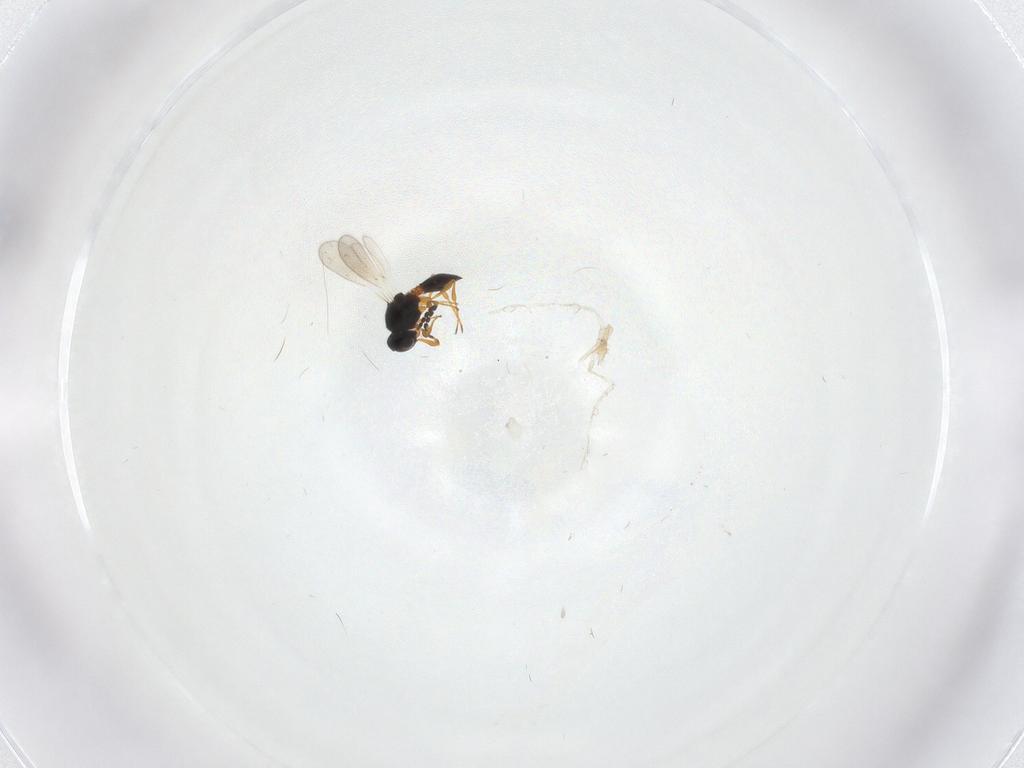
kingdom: Animalia
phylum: Arthropoda
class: Insecta
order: Hymenoptera
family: Platygastridae
